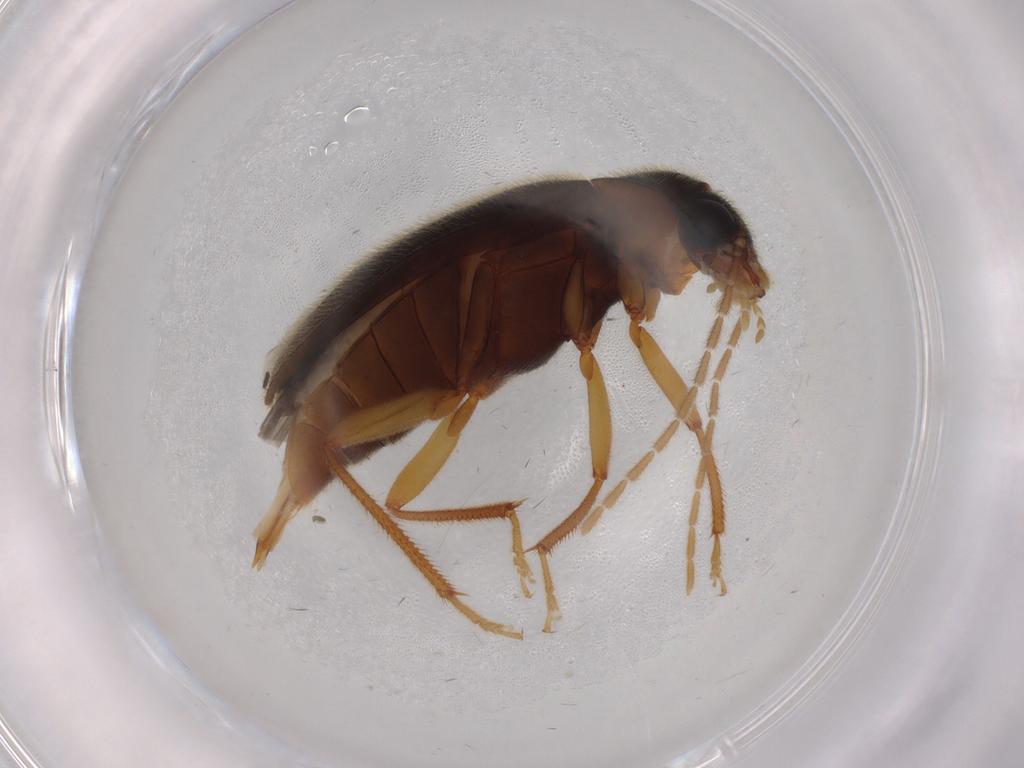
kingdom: Animalia
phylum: Arthropoda
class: Insecta
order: Coleoptera
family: Ptilodactylidae
